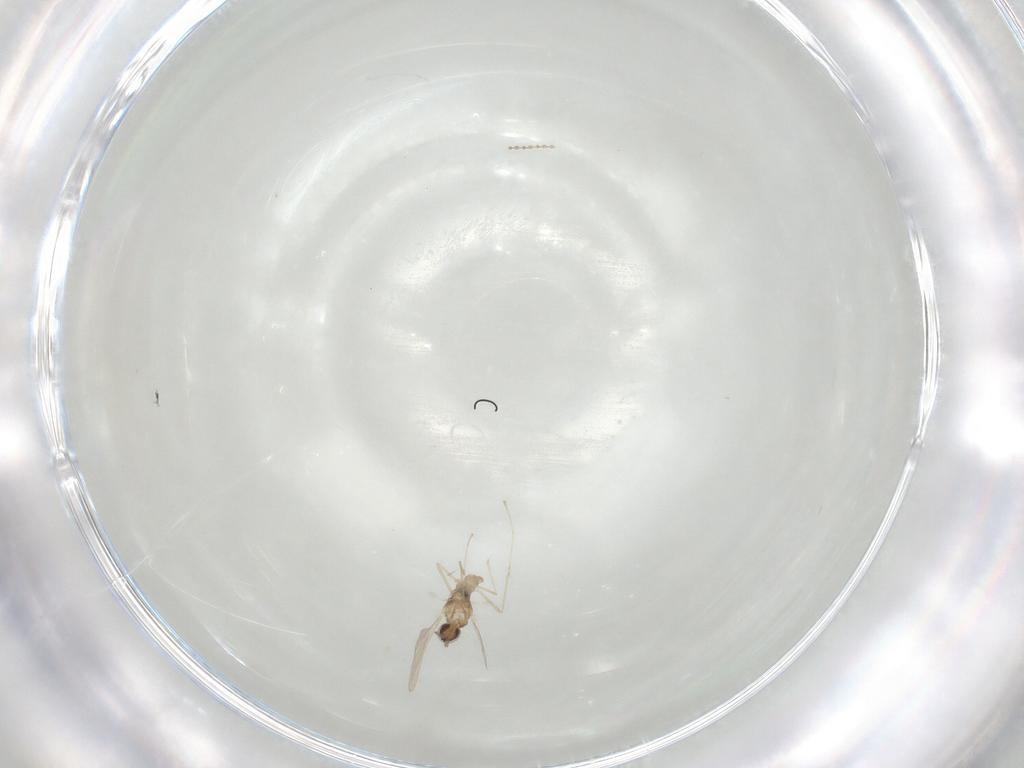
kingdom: Animalia
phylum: Arthropoda
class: Insecta
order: Diptera
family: Cecidomyiidae
